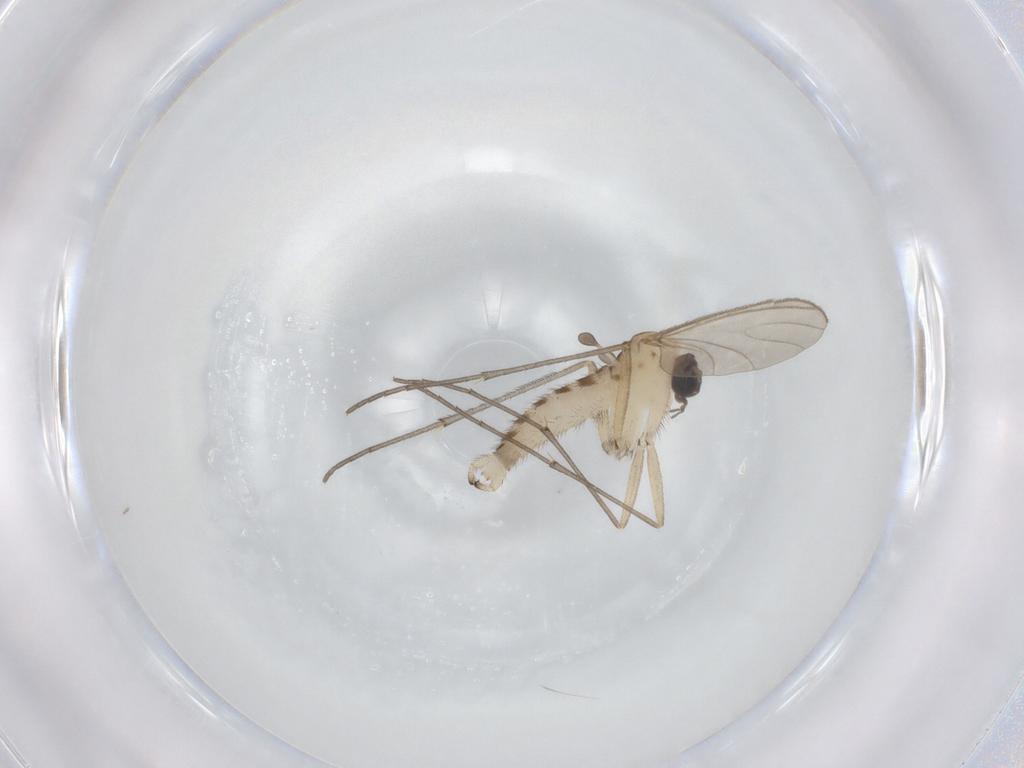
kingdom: Animalia
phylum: Arthropoda
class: Insecta
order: Diptera
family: Sciaridae
